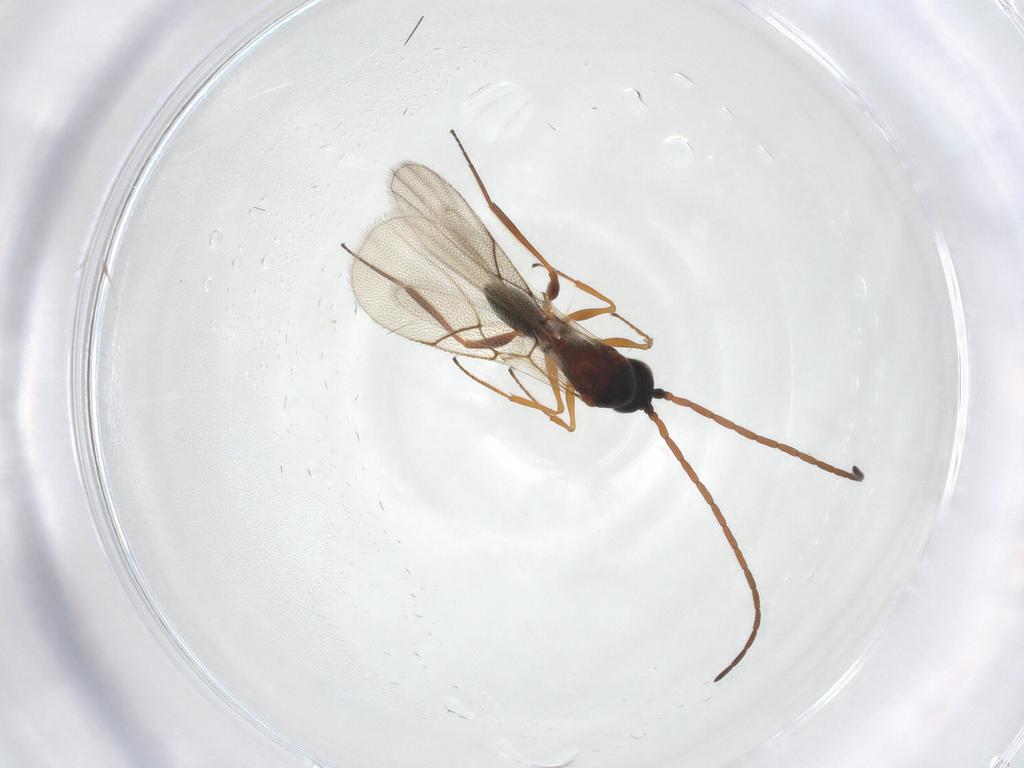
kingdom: Animalia
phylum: Arthropoda
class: Insecta
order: Hymenoptera
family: Figitidae
